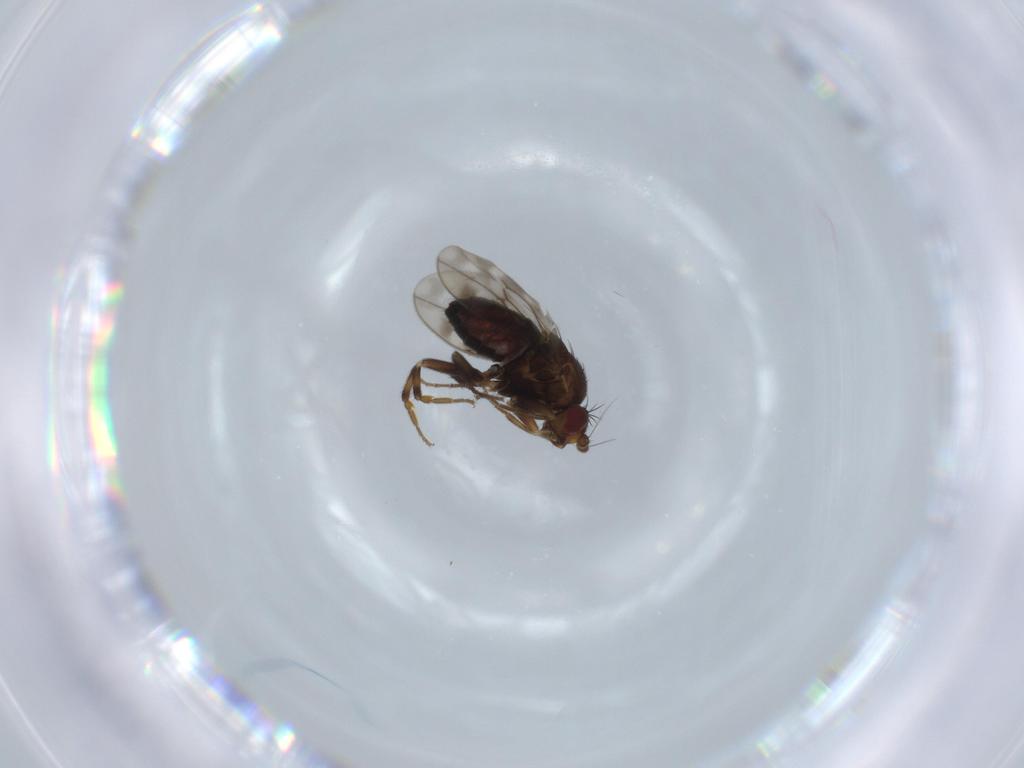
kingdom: Animalia
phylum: Arthropoda
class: Insecta
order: Diptera
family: Sphaeroceridae
